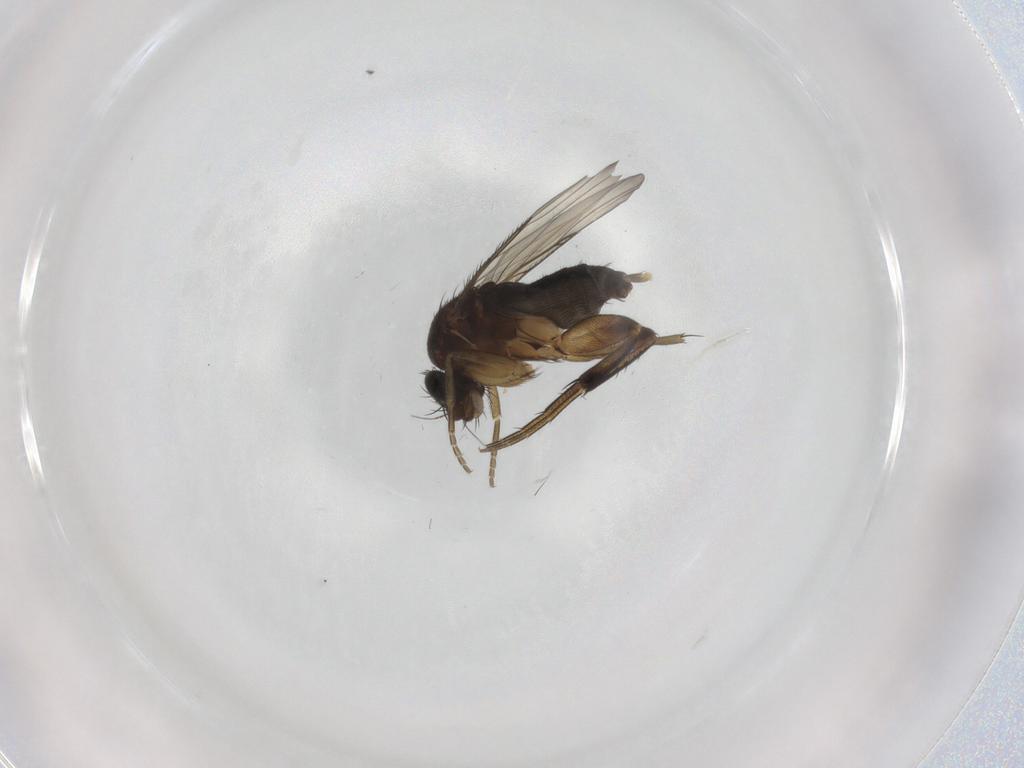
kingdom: Animalia
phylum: Arthropoda
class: Insecta
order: Diptera
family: Phoridae
